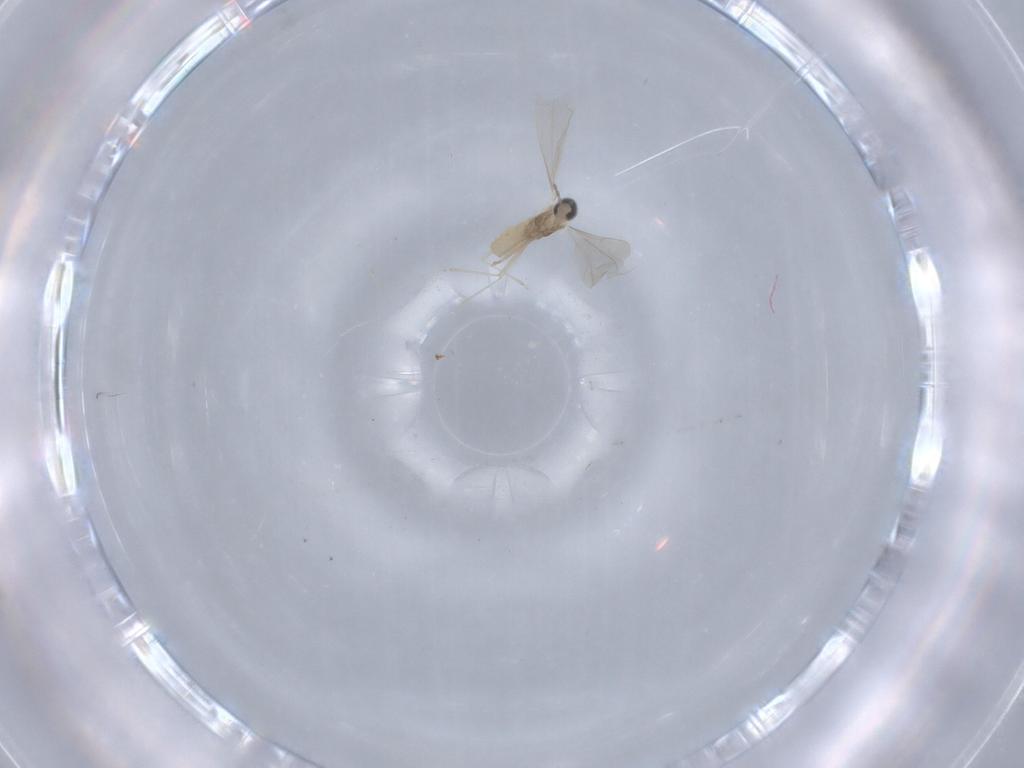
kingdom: Animalia
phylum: Arthropoda
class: Insecta
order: Diptera
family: Cecidomyiidae
